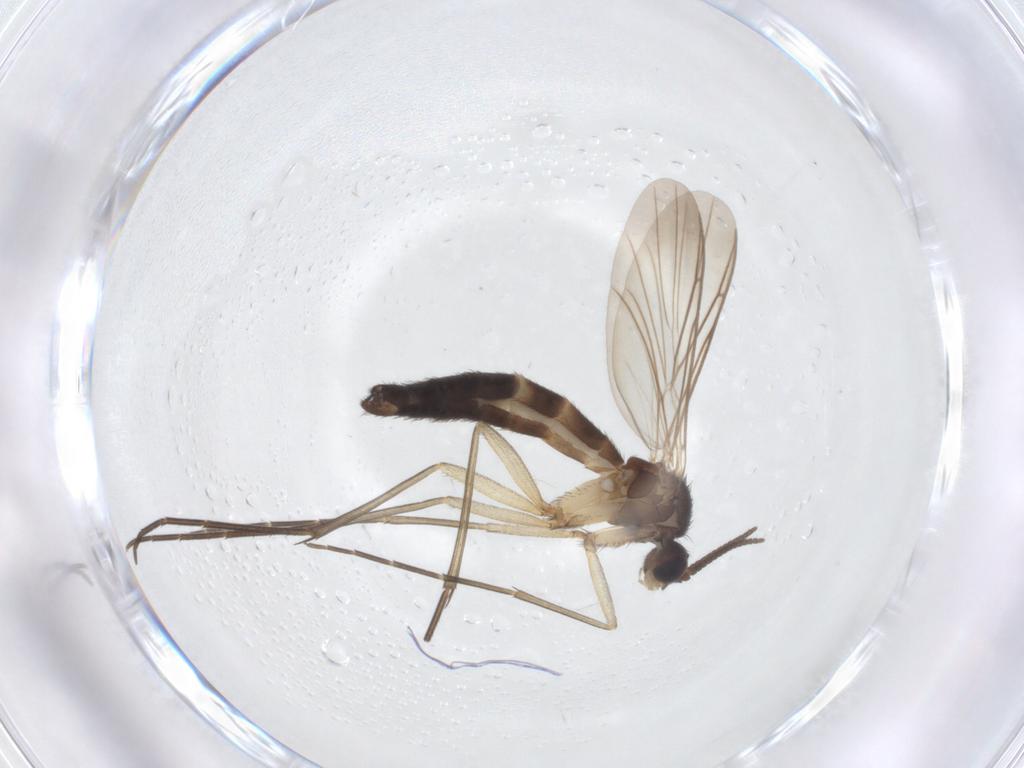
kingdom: Animalia
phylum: Arthropoda
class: Insecta
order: Diptera
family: Keroplatidae
